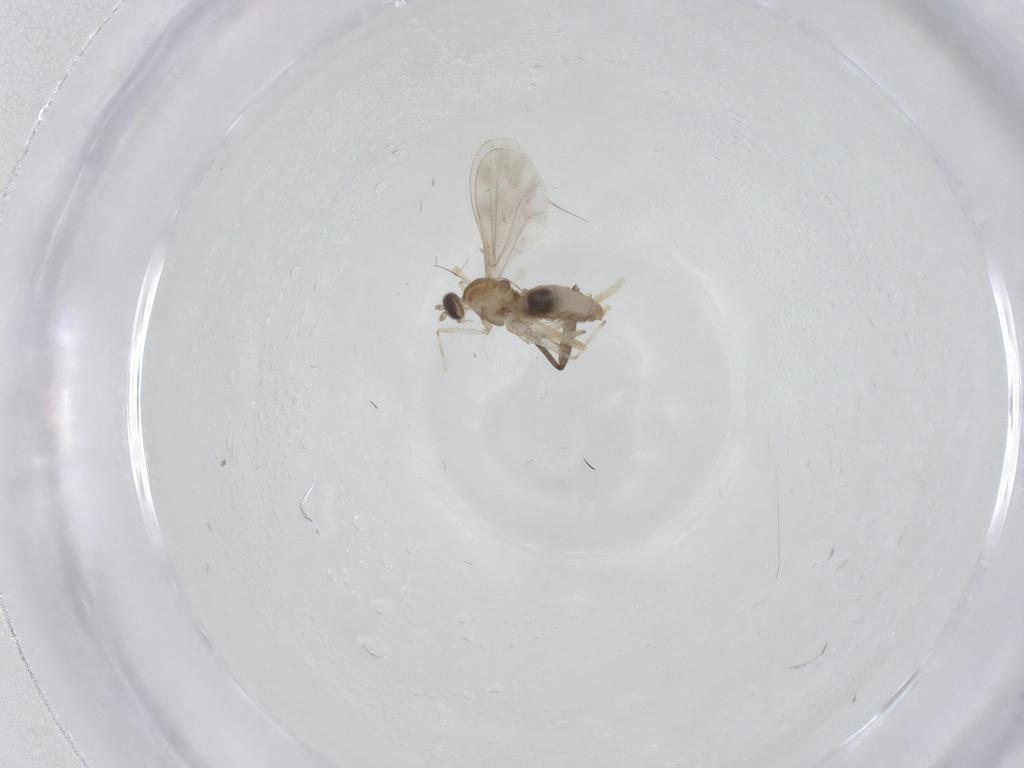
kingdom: Animalia
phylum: Arthropoda
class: Insecta
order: Diptera
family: Chironomidae
